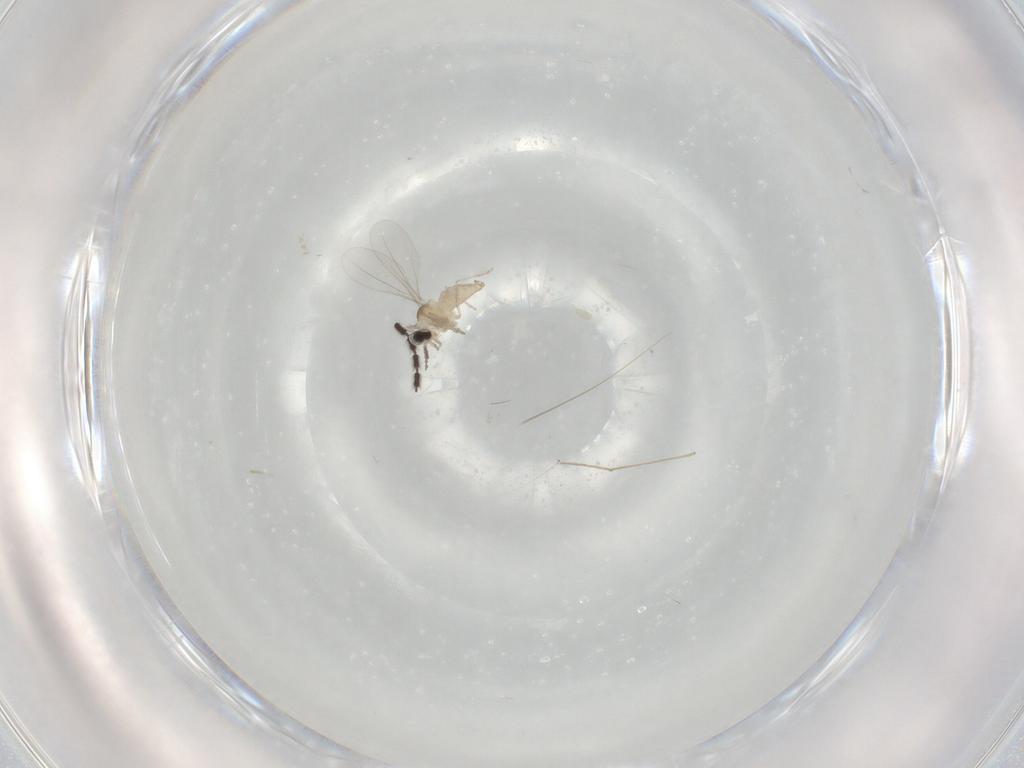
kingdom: Animalia
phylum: Arthropoda
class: Insecta
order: Diptera
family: Cecidomyiidae
